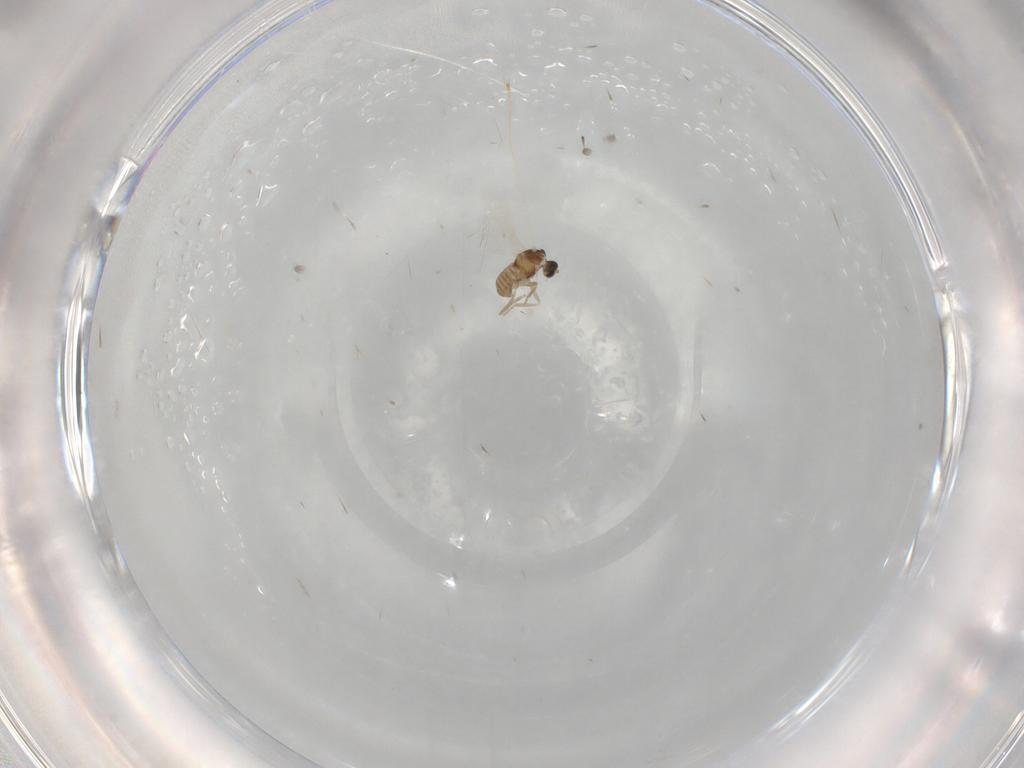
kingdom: Animalia
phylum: Arthropoda
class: Insecta
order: Diptera
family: Cecidomyiidae
